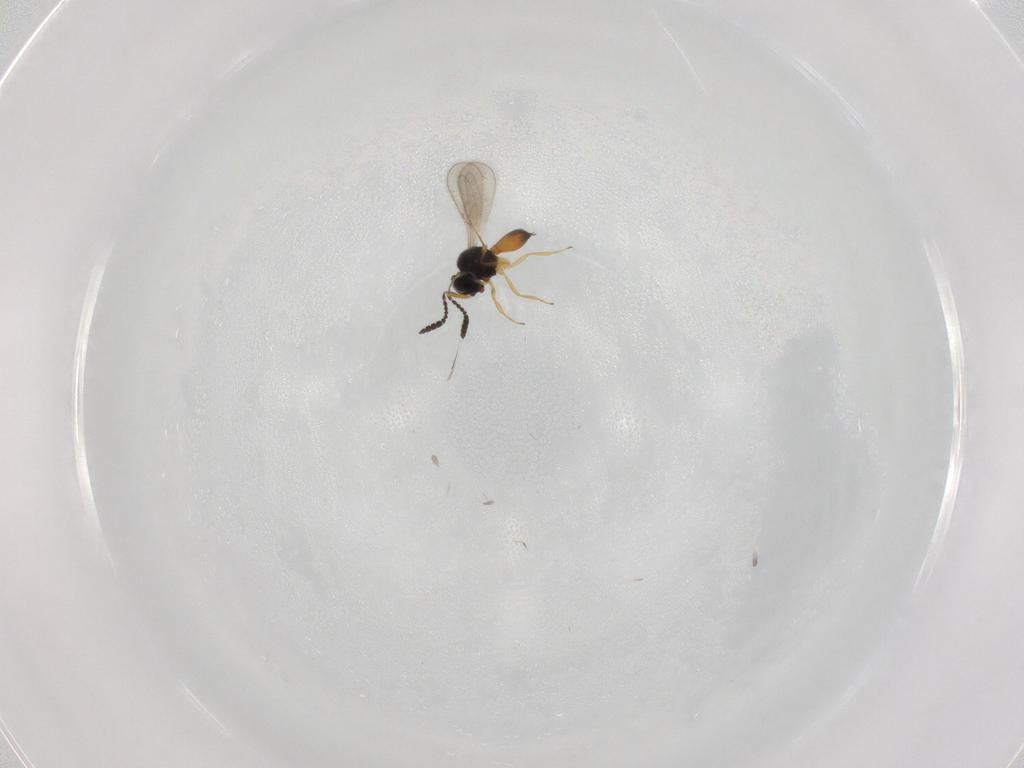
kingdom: Animalia
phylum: Arthropoda
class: Insecta
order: Hymenoptera
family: Scelionidae
